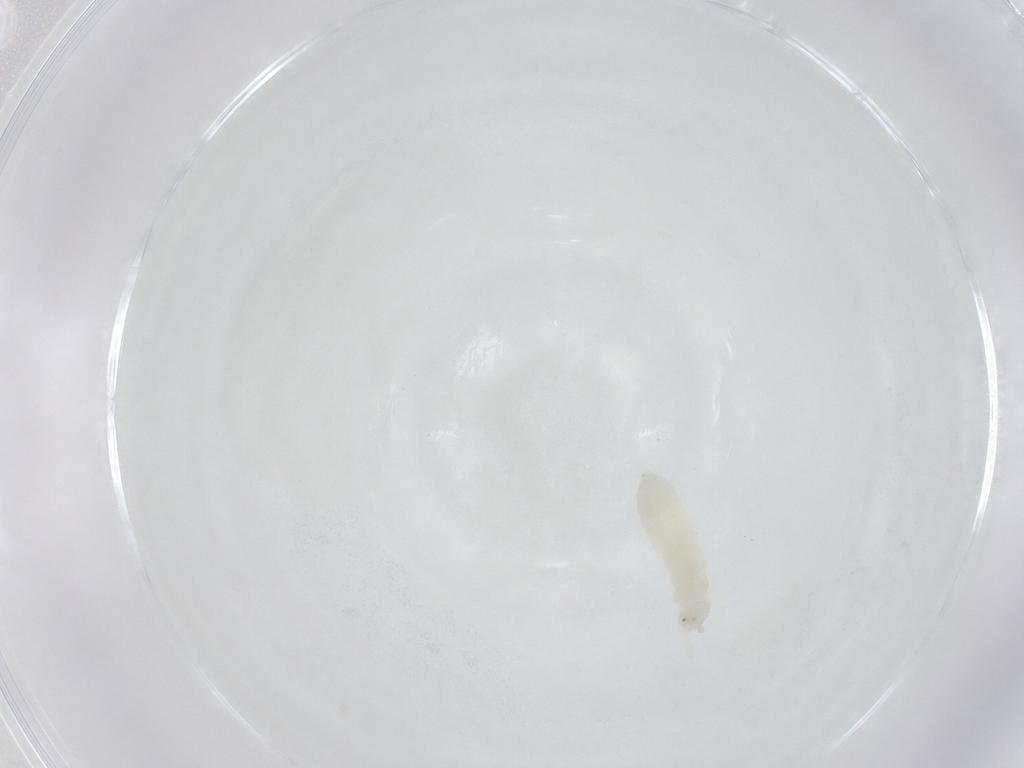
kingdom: Animalia
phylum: Arthropoda
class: Collembola
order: Poduromorpha
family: Onychiuridae
